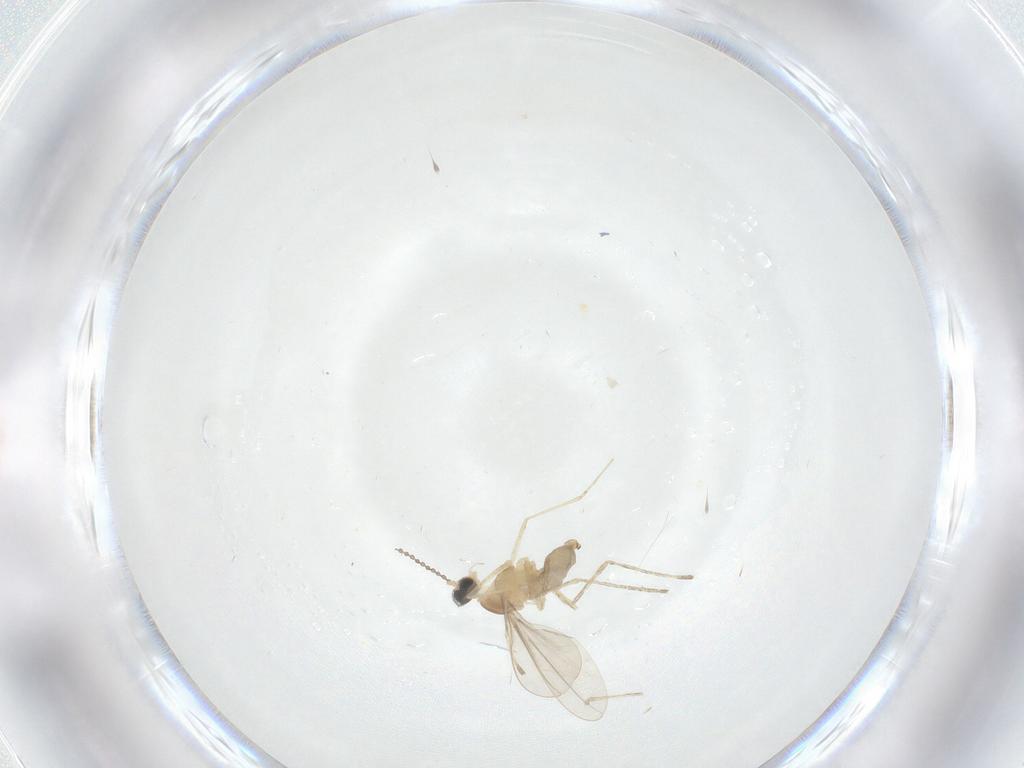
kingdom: Animalia
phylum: Arthropoda
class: Insecta
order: Diptera
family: Cecidomyiidae
